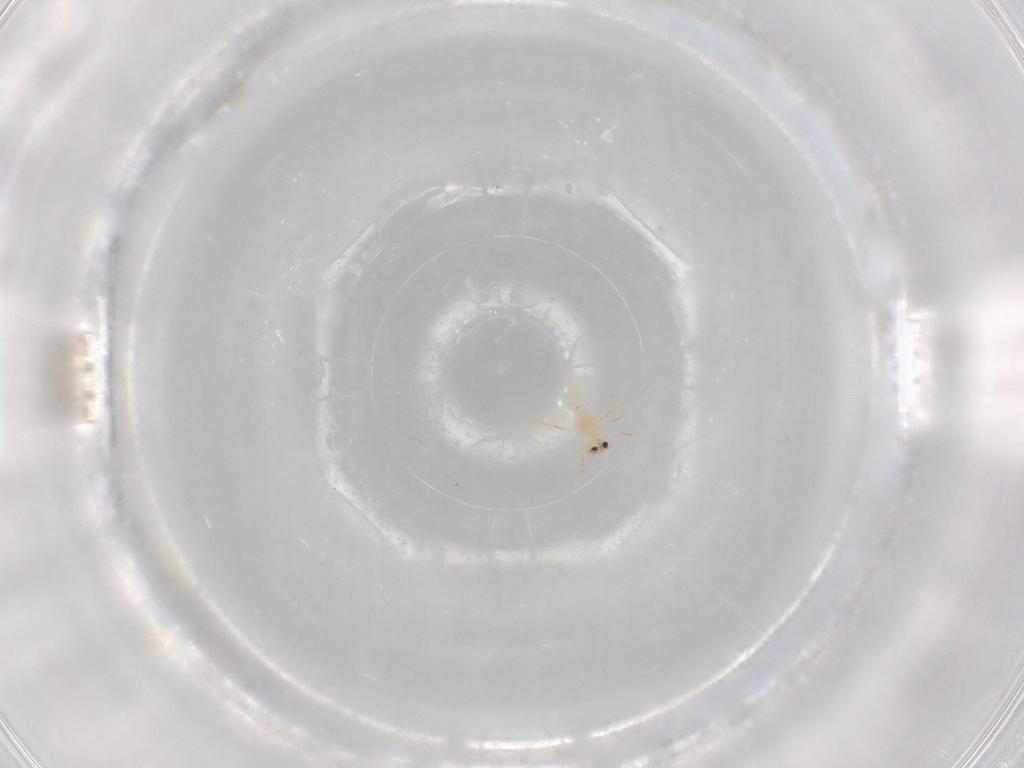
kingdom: Animalia
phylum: Arthropoda
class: Insecta
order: Hemiptera
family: Aleyrodidae
